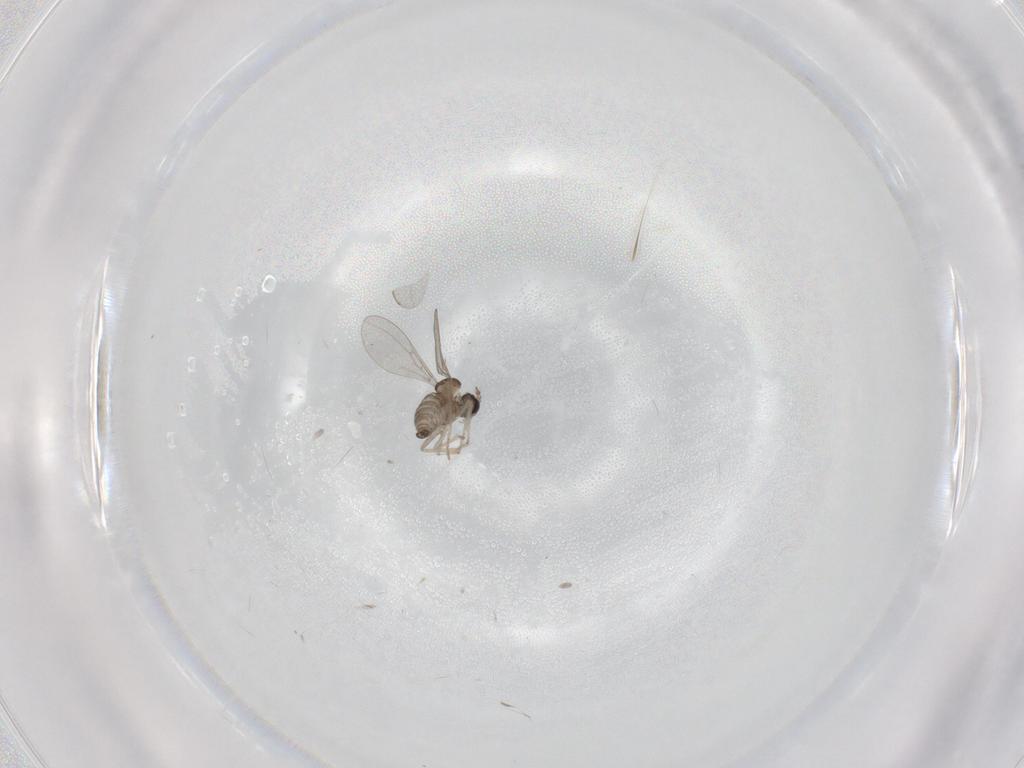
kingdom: Animalia
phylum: Arthropoda
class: Insecta
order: Diptera
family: Cecidomyiidae
